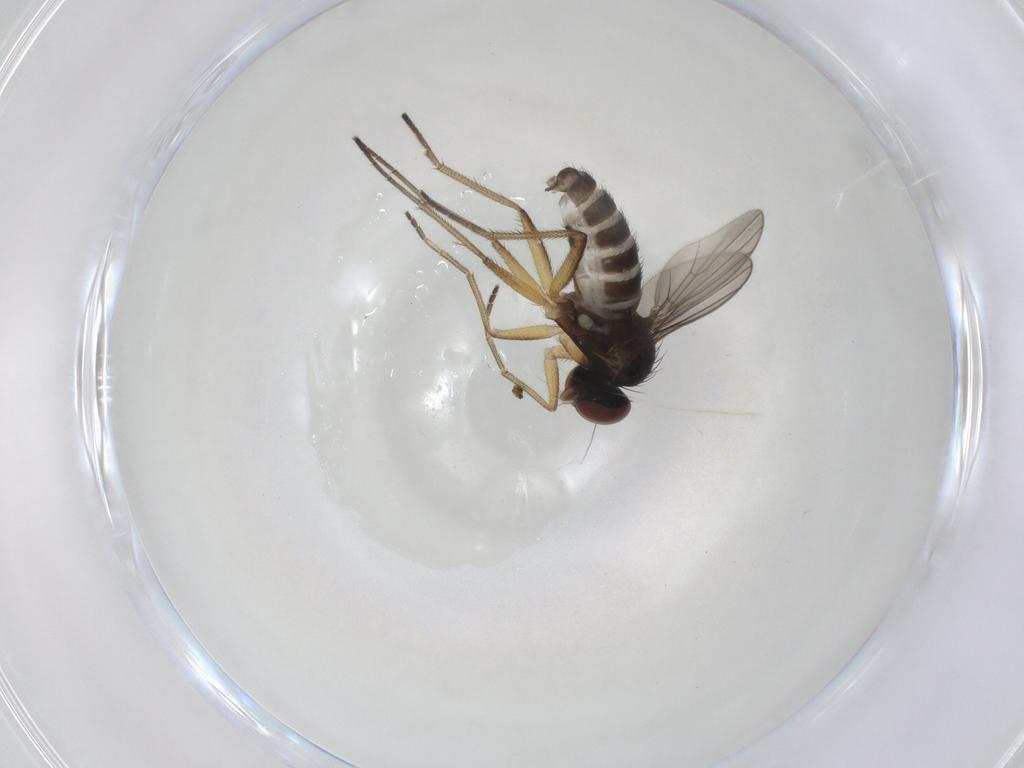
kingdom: Animalia
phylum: Arthropoda
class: Insecta
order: Diptera
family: Dolichopodidae
